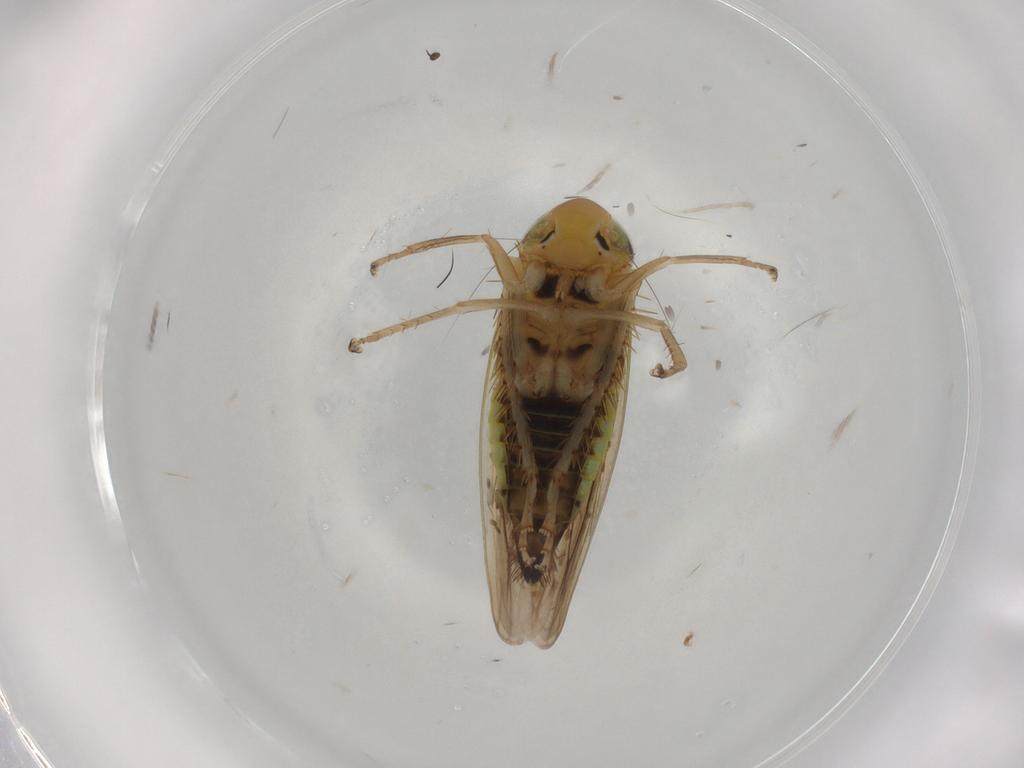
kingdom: Animalia
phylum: Arthropoda
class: Insecta
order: Hemiptera
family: Cicadellidae
